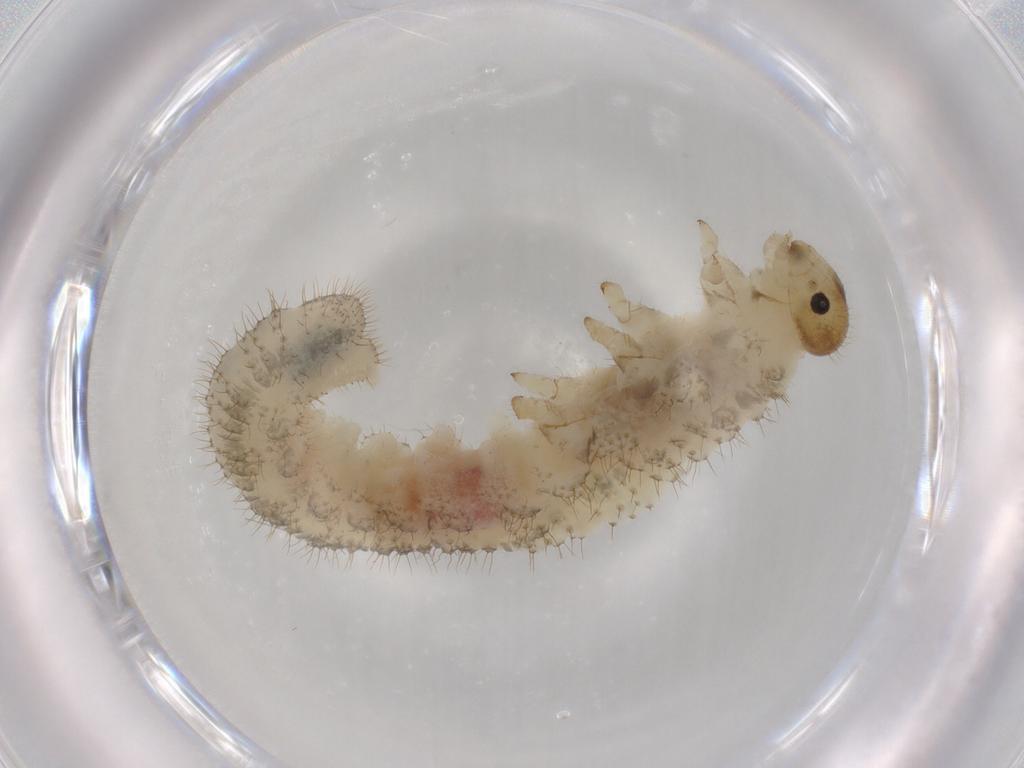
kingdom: Animalia
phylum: Arthropoda
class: Insecta
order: Hymenoptera
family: Tenthredinidae
